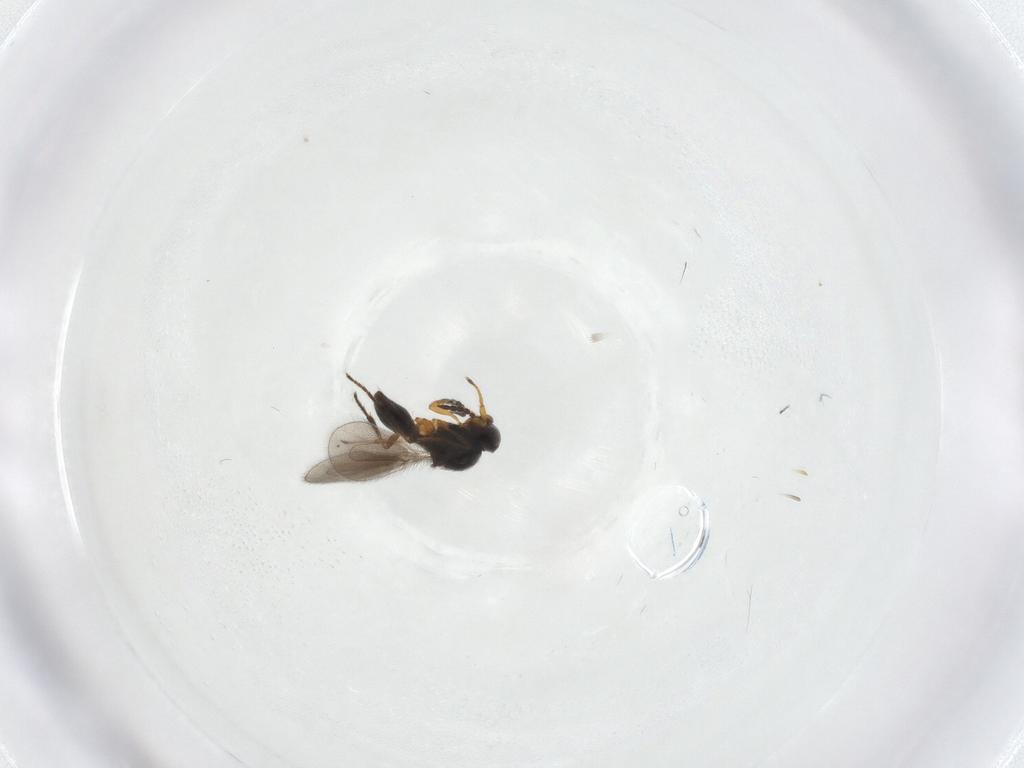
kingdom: Animalia
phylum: Arthropoda
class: Insecta
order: Hymenoptera
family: Platygastridae
